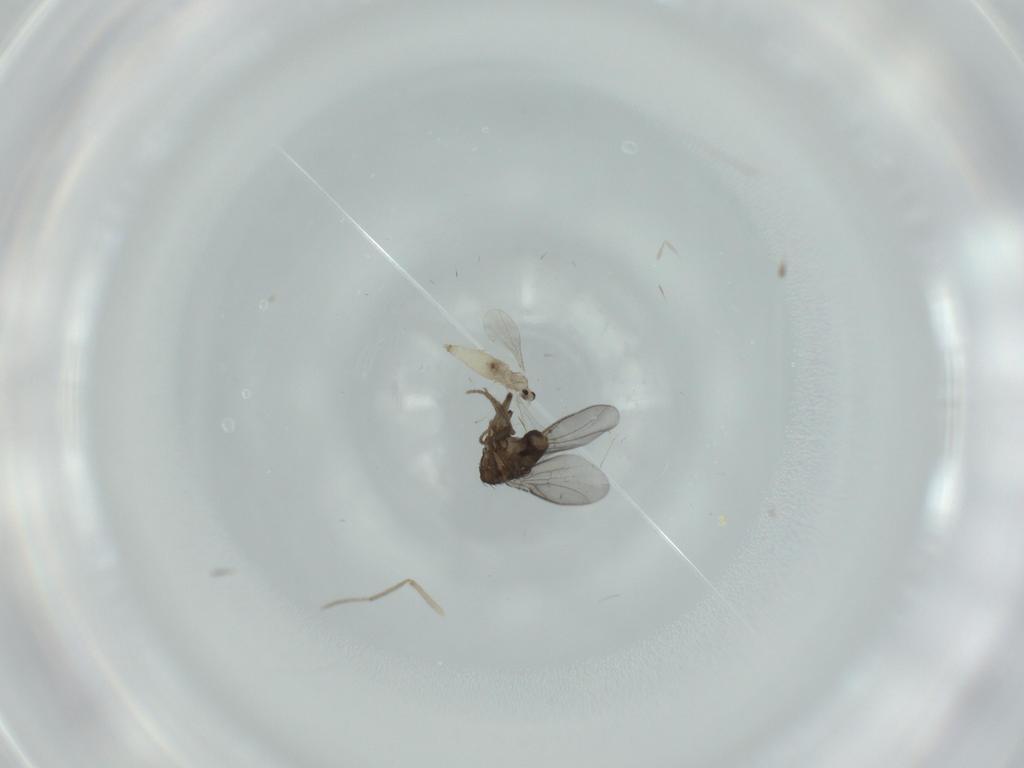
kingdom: Animalia
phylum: Arthropoda
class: Insecta
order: Diptera
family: Sphaeroceridae
